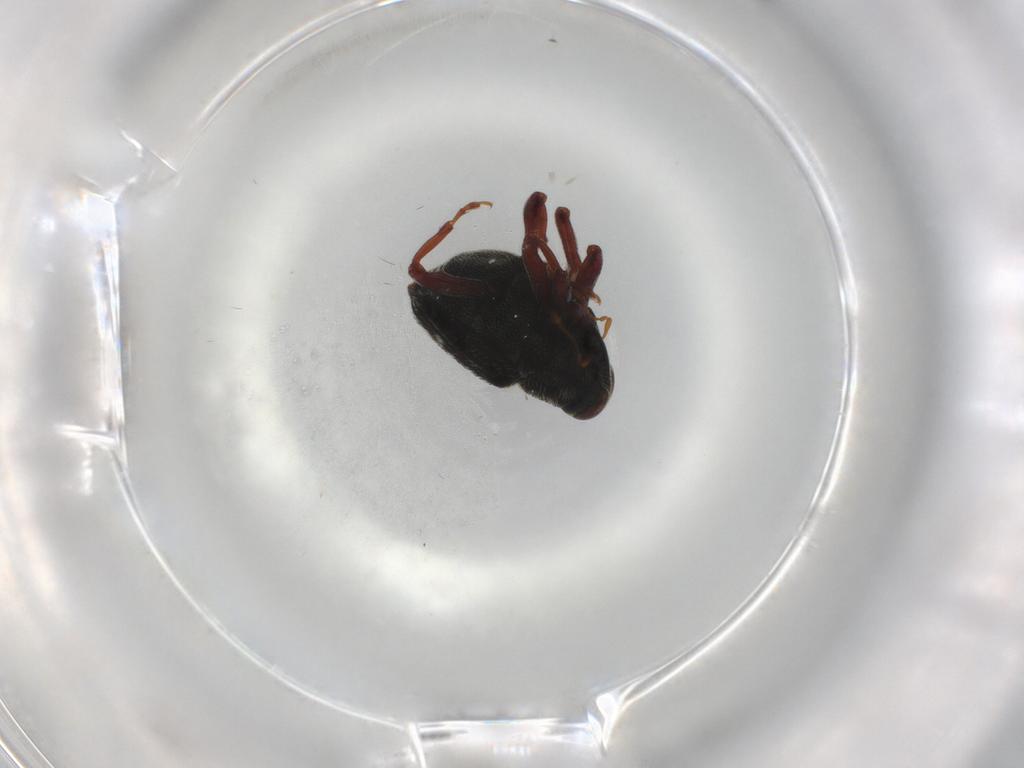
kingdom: Animalia
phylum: Arthropoda
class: Insecta
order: Coleoptera
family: Curculionidae
